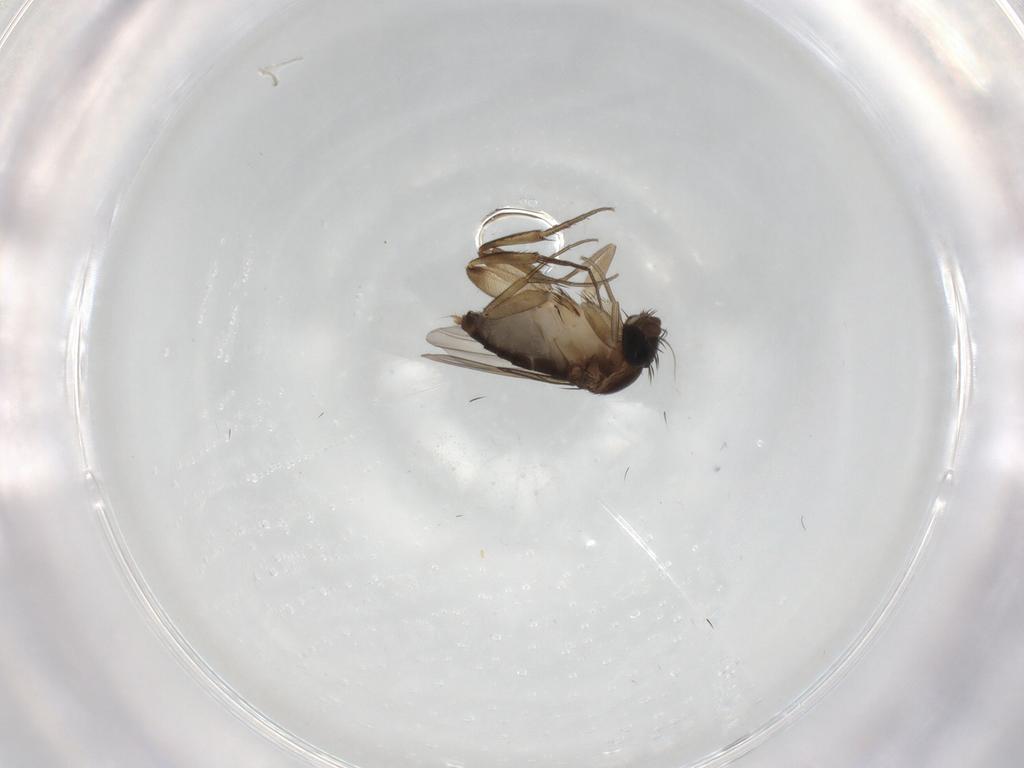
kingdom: Animalia
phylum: Arthropoda
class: Insecta
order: Diptera
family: Phoridae
